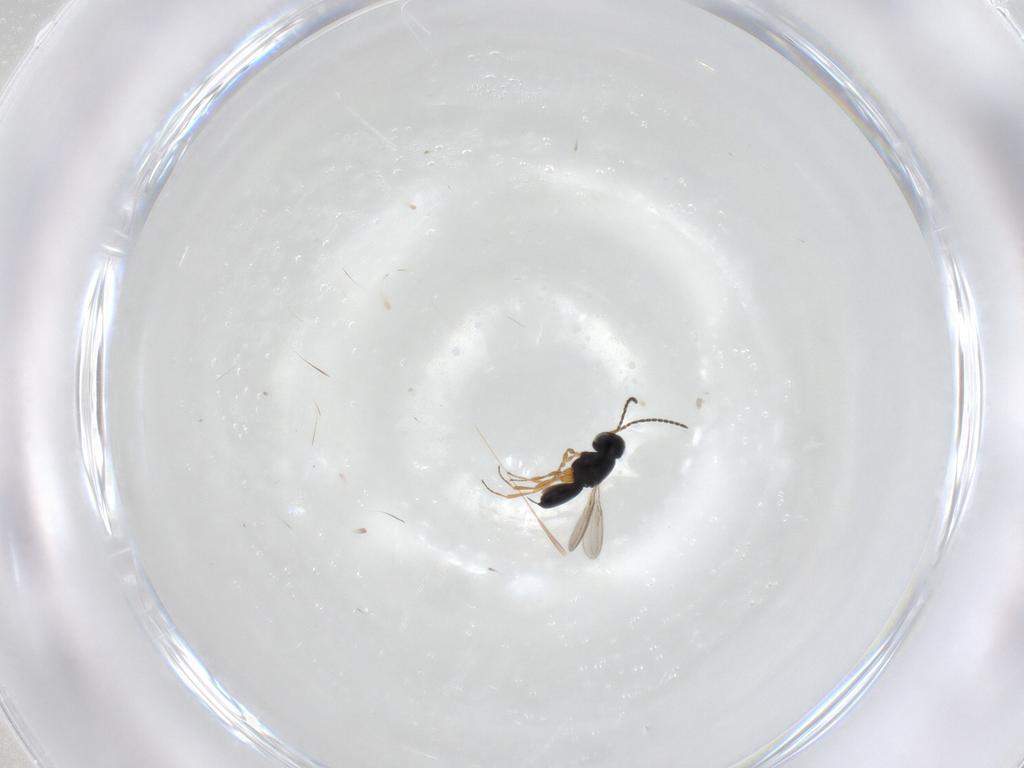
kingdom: Animalia
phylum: Arthropoda
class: Insecta
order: Hymenoptera
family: Scelionidae
